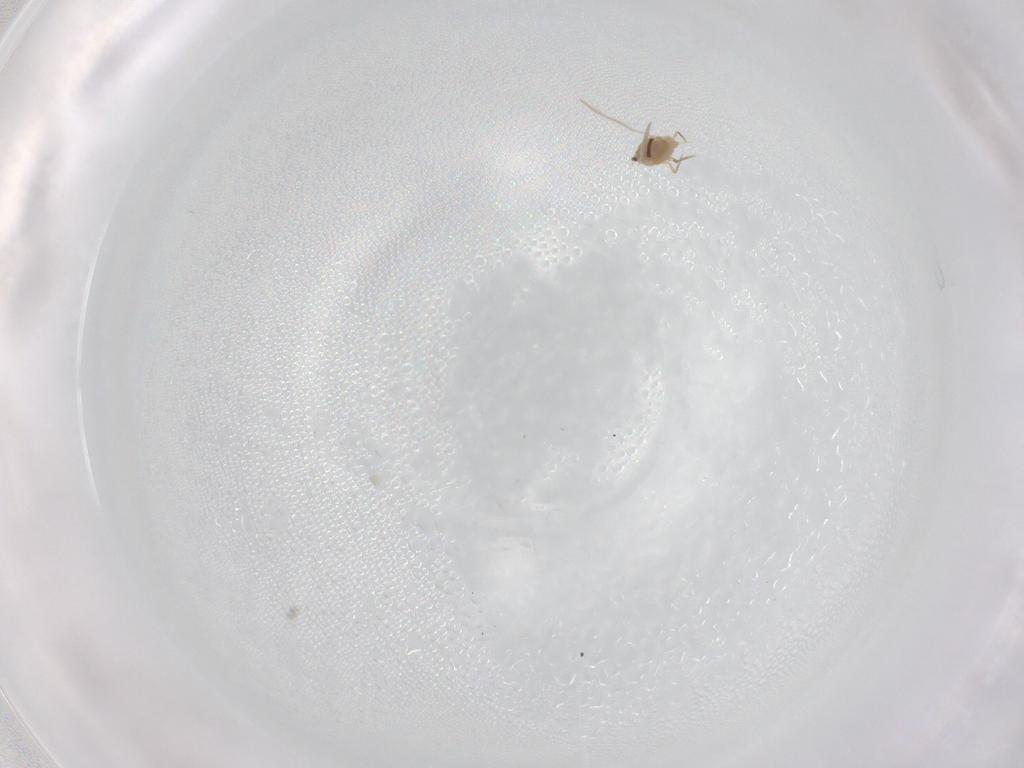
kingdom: Animalia
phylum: Arthropoda
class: Insecta
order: Hemiptera
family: Diaspididae
